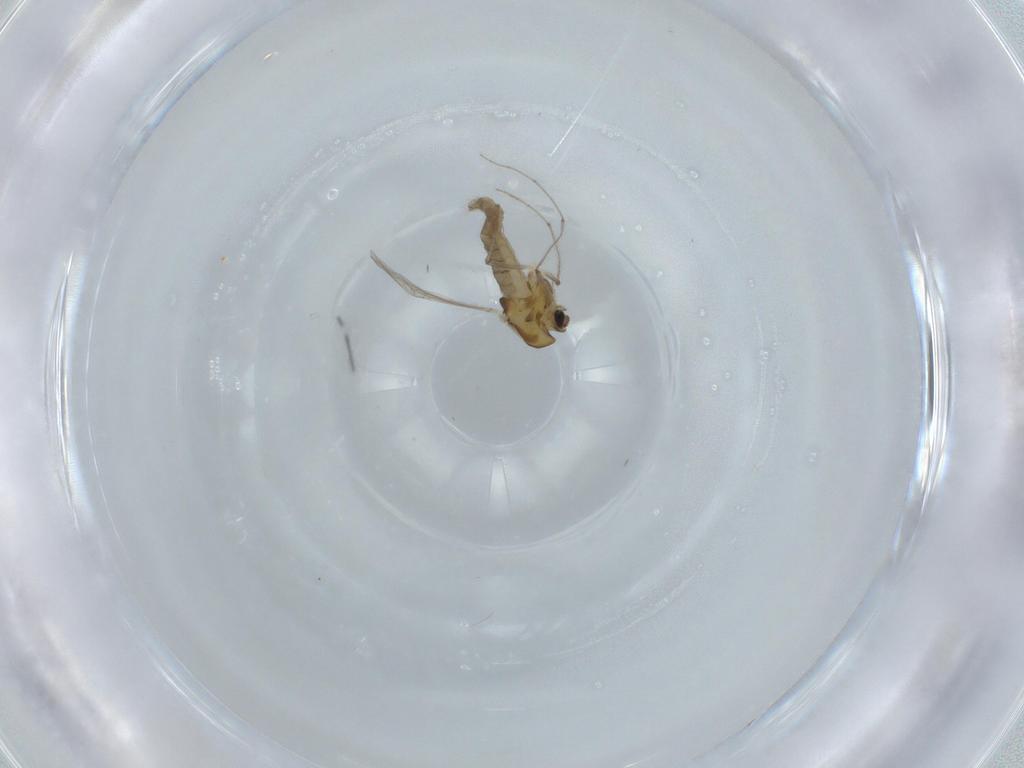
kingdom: Animalia
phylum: Arthropoda
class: Insecta
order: Diptera
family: Chironomidae
